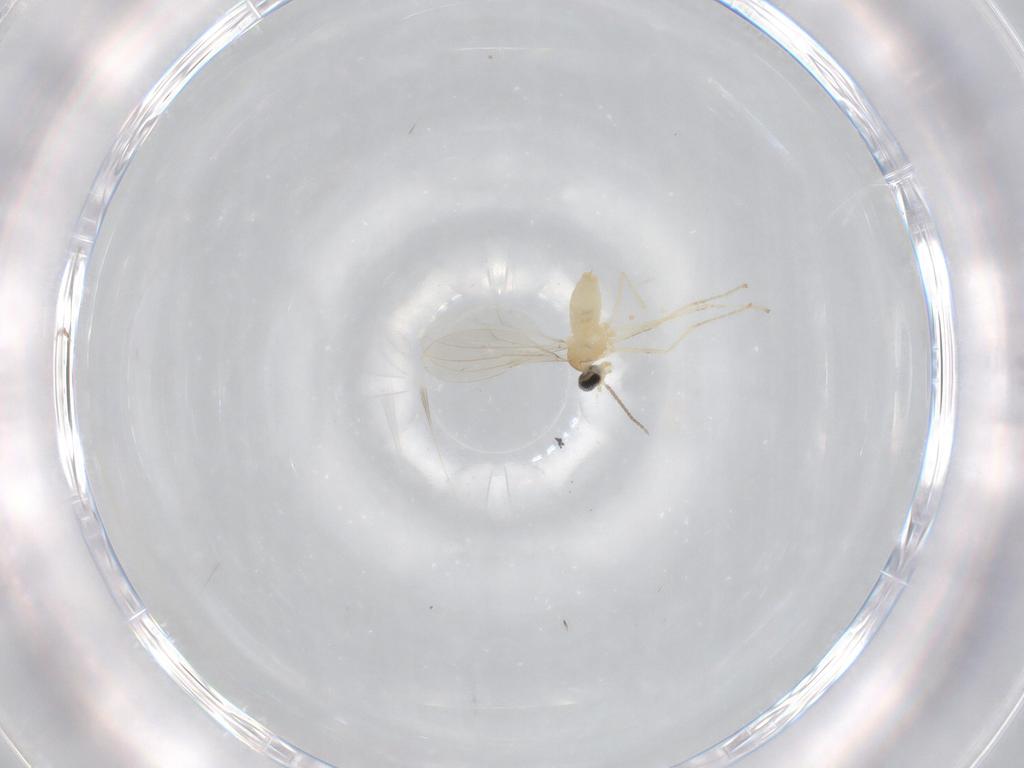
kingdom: Animalia
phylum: Arthropoda
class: Insecta
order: Diptera
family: Cecidomyiidae
